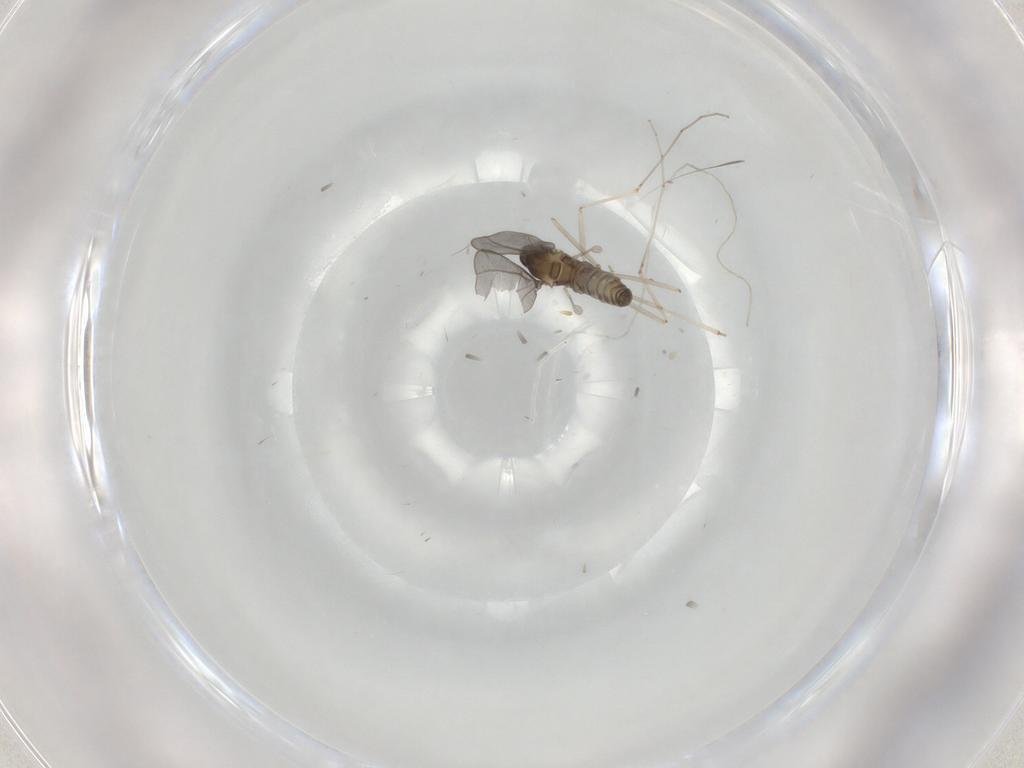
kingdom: Animalia
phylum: Arthropoda
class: Insecta
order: Diptera
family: Cecidomyiidae
